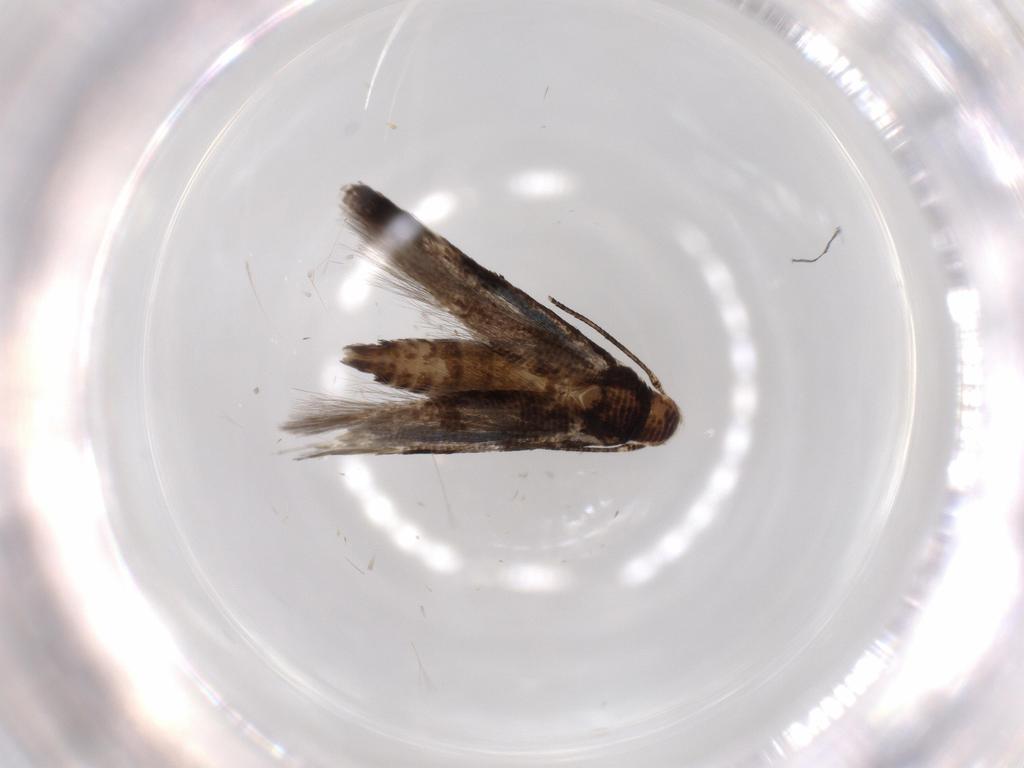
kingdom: Animalia
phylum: Arthropoda
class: Insecta
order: Lepidoptera
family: Momphidae
